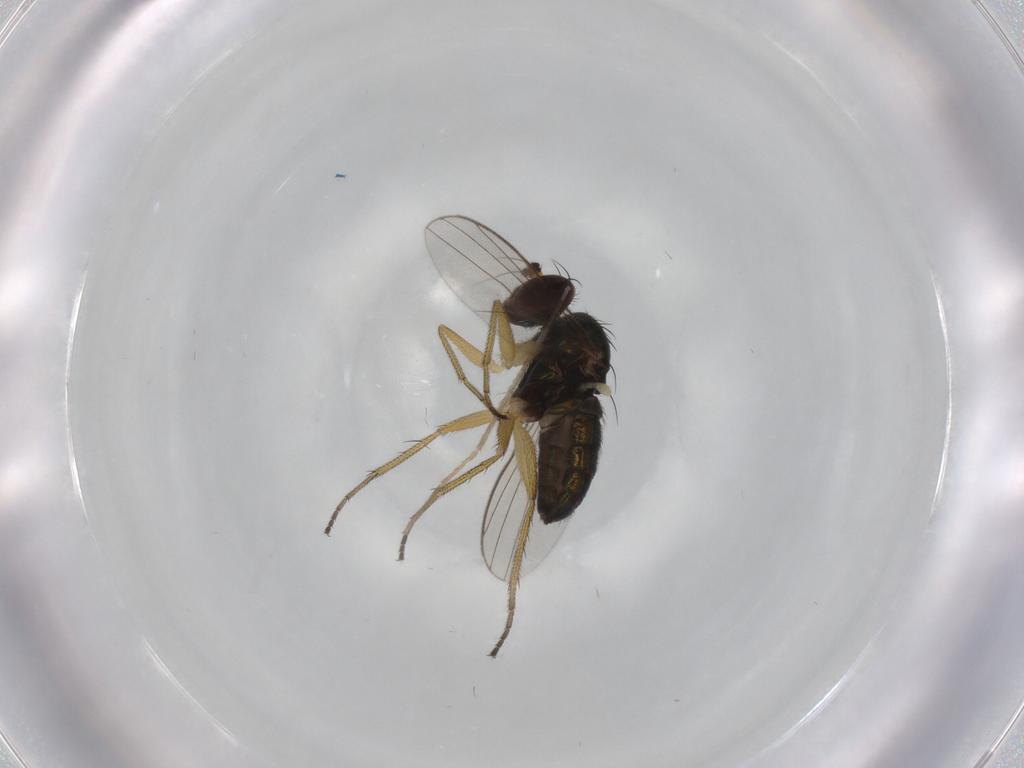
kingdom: Animalia
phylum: Arthropoda
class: Insecta
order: Diptera
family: Chironomidae
